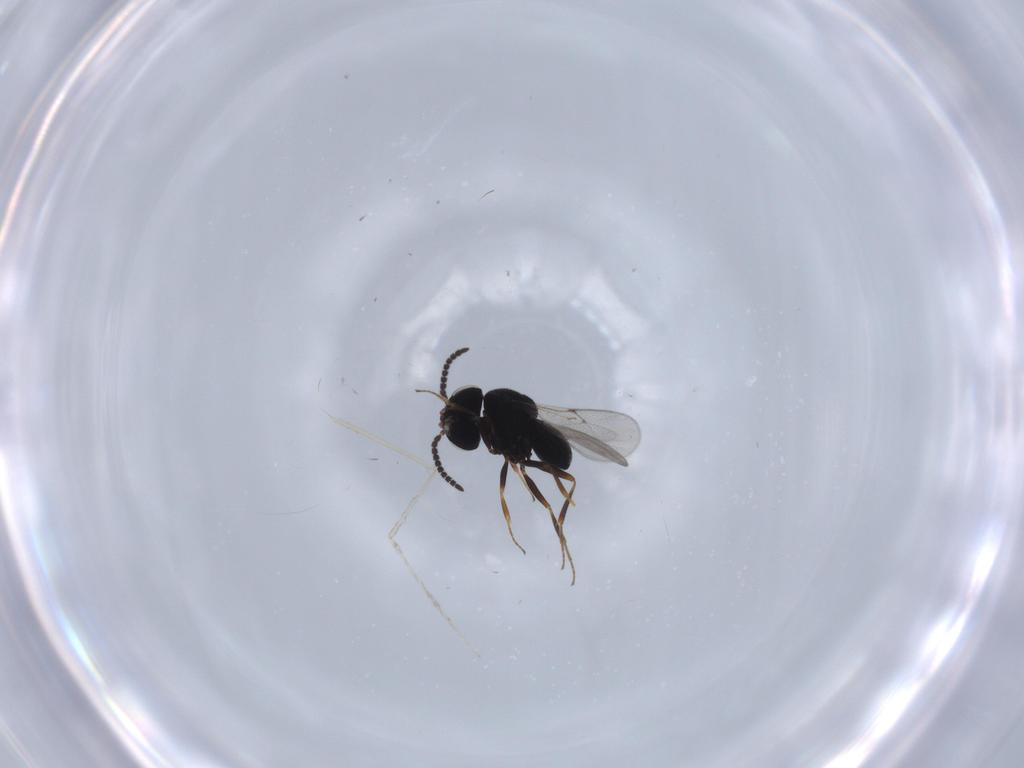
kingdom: Animalia
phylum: Arthropoda
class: Insecta
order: Hymenoptera
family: Scelionidae
